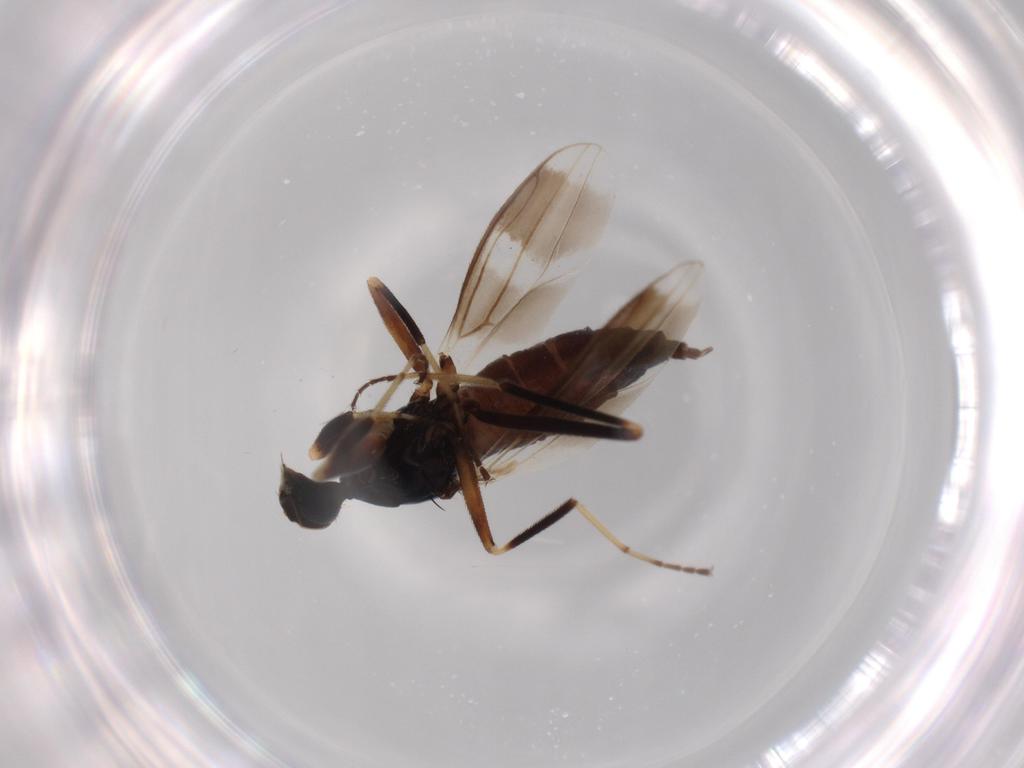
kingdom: Animalia
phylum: Arthropoda
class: Insecta
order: Diptera
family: Hybotidae
